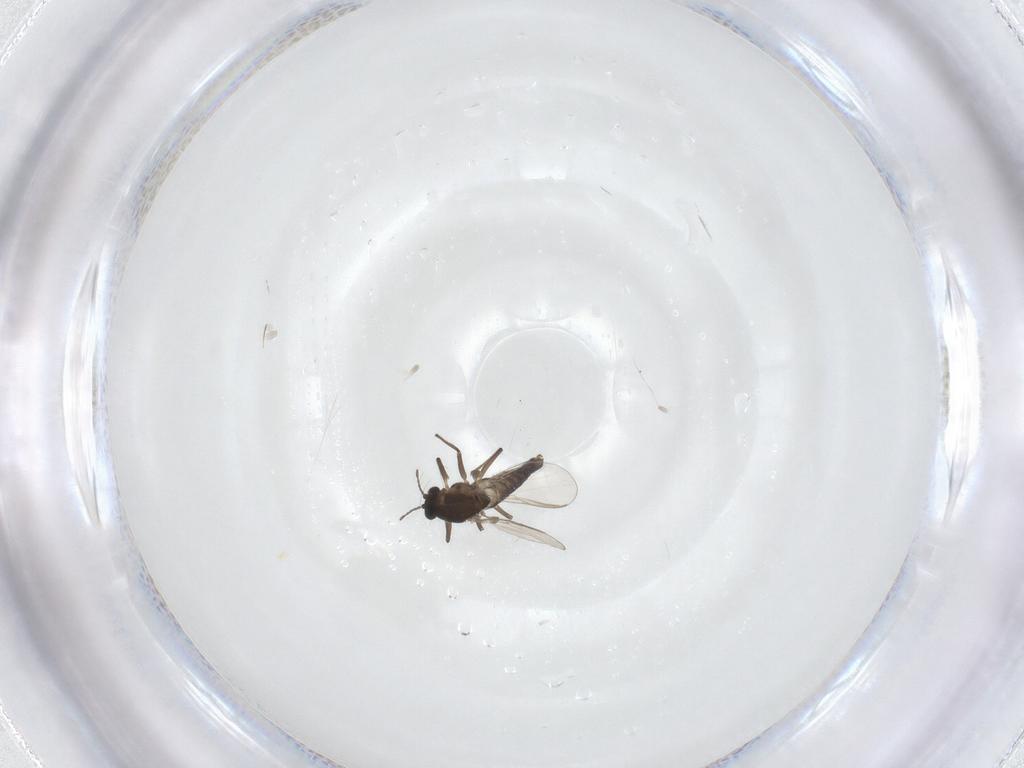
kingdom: Animalia
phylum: Arthropoda
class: Insecta
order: Diptera
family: Chironomidae
